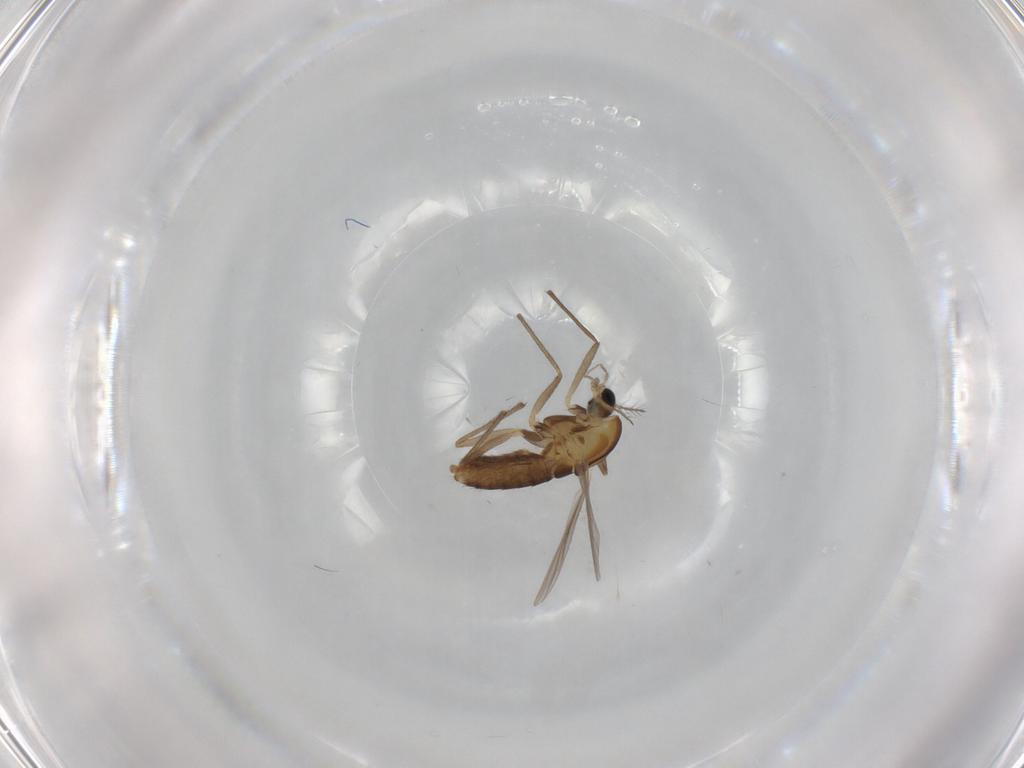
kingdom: Animalia
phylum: Arthropoda
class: Insecta
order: Diptera
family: Chironomidae
